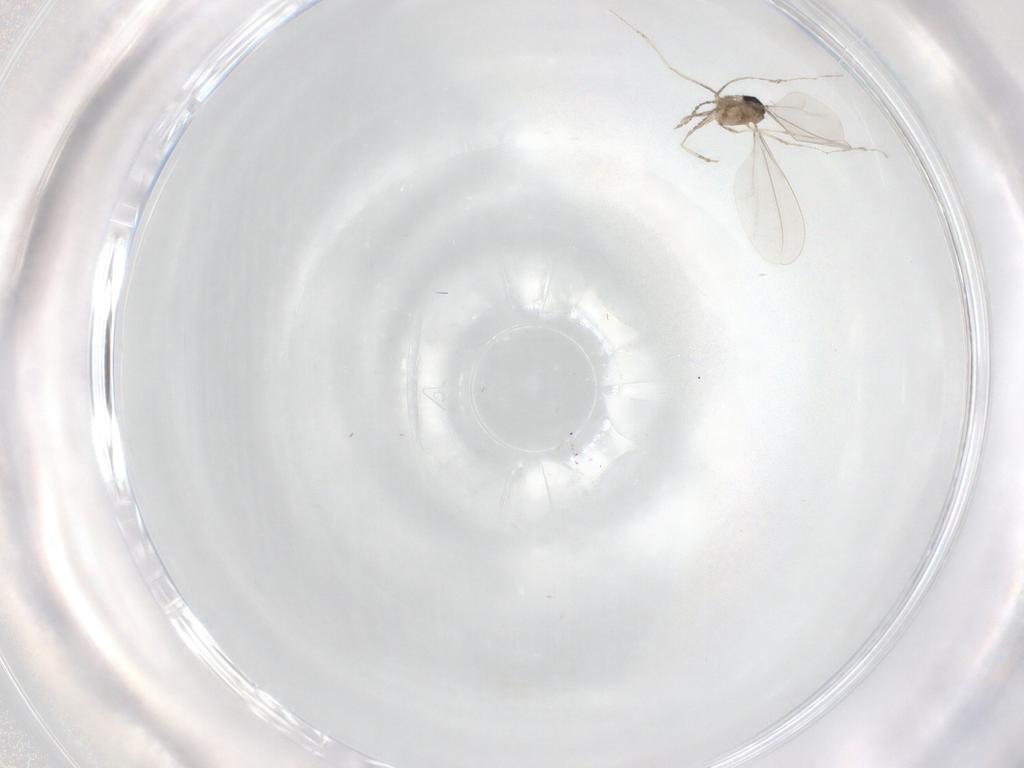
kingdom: Animalia
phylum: Arthropoda
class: Insecta
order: Diptera
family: Cecidomyiidae
